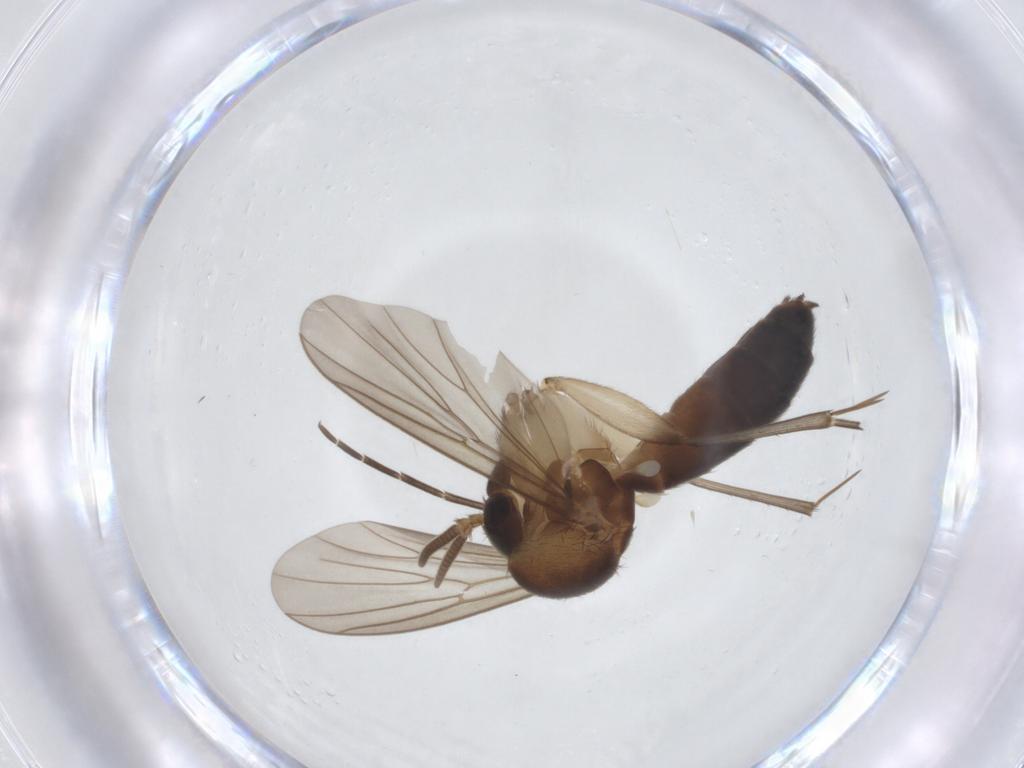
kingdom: Animalia
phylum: Arthropoda
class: Insecta
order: Diptera
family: Mycetophilidae
